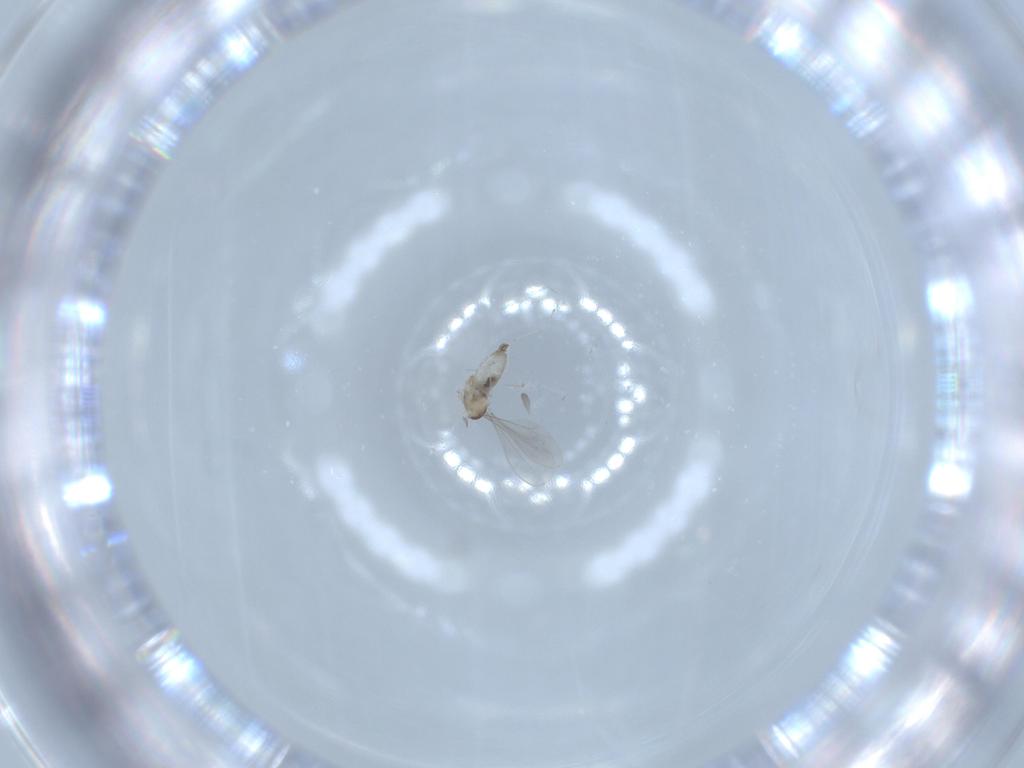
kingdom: Animalia
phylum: Arthropoda
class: Insecta
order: Diptera
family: Cecidomyiidae
